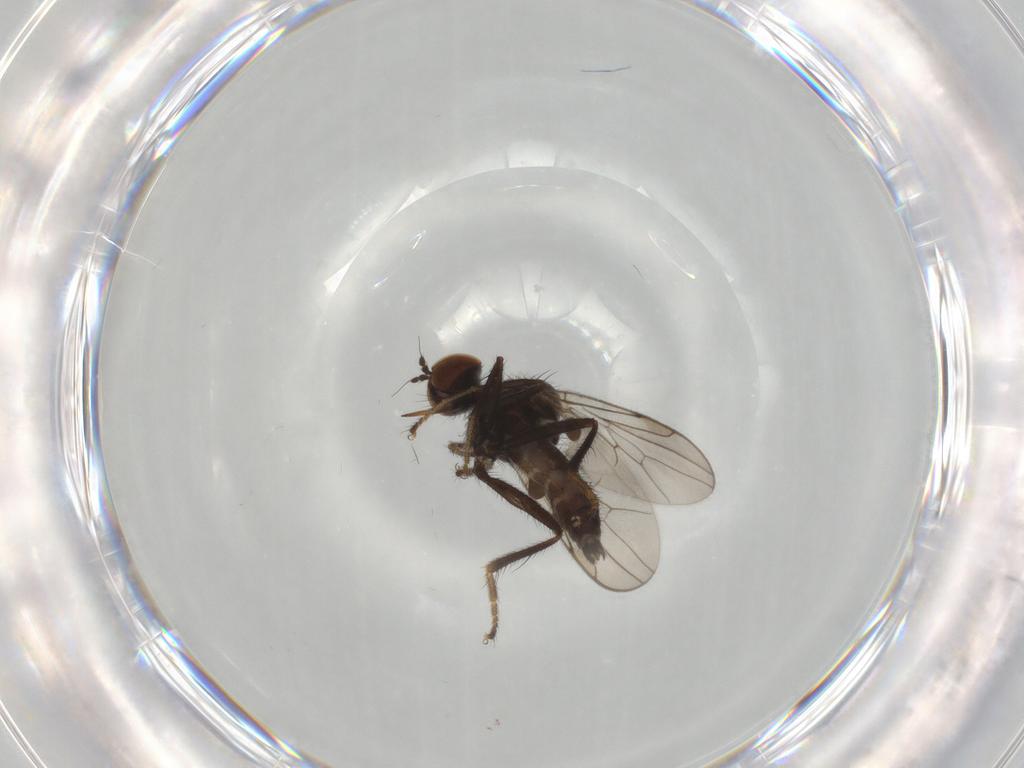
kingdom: Animalia
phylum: Arthropoda
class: Insecta
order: Diptera
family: Hybotidae
